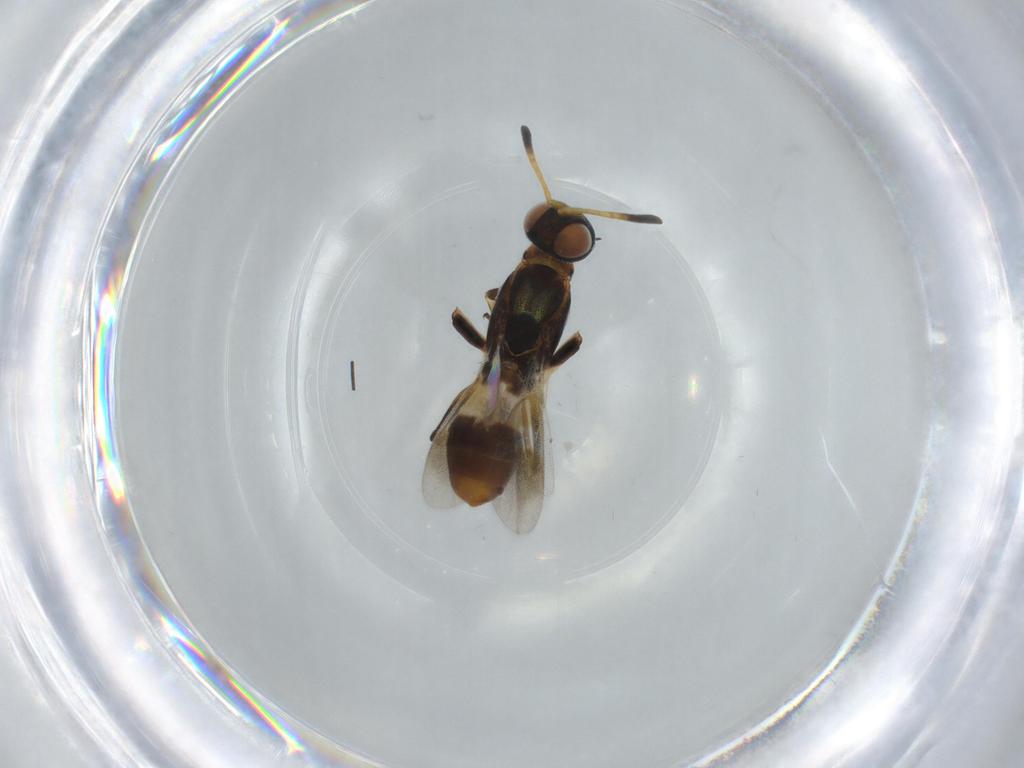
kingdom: Animalia
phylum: Arthropoda
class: Insecta
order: Hymenoptera
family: Eupelmidae
